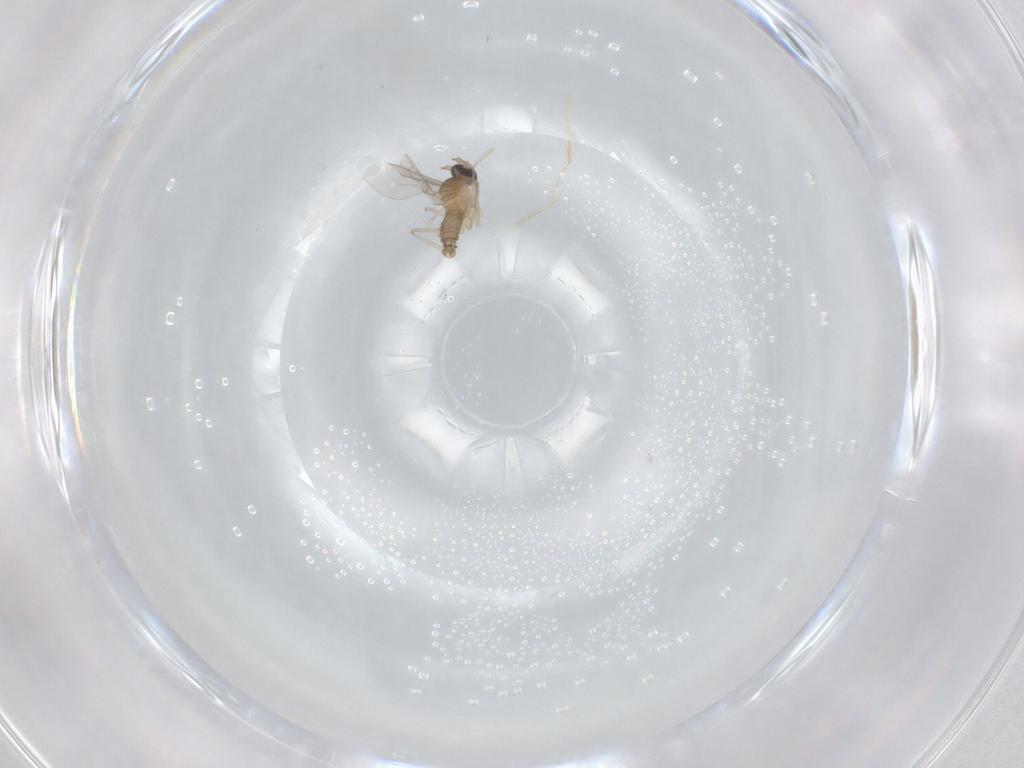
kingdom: Animalia
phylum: Arthropoda
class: Insecta
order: Diptera
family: Cecidomyiidae
